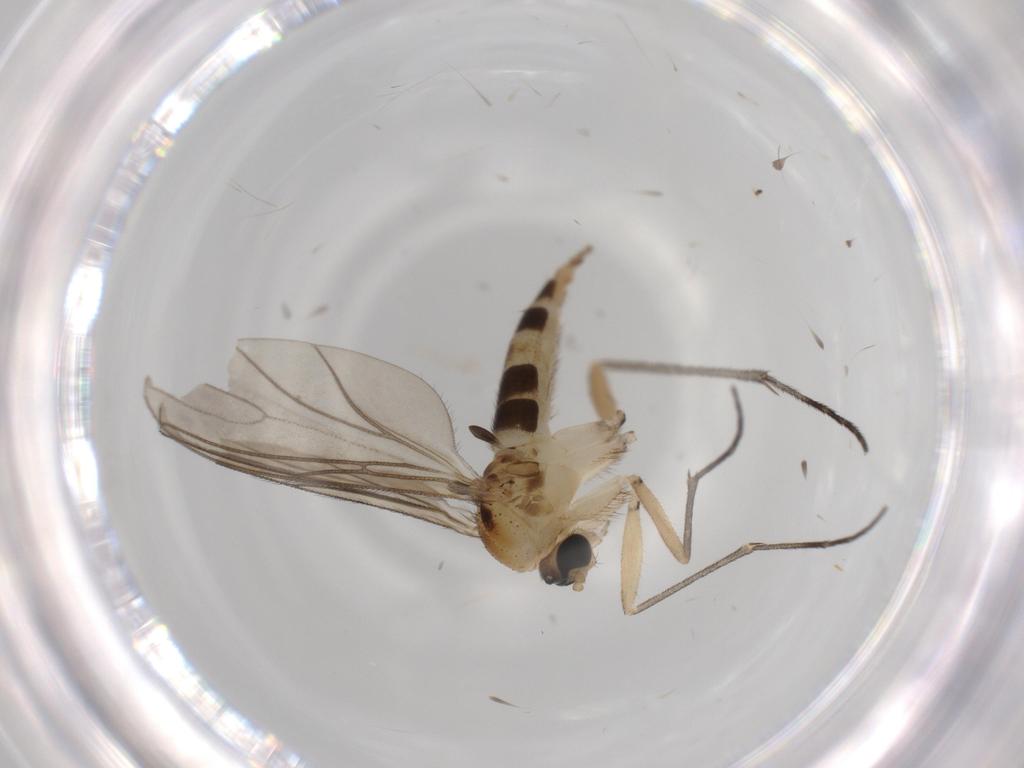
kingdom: Animalia
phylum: Arthropoda
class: Insecta
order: Diptera
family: Sciaridae
